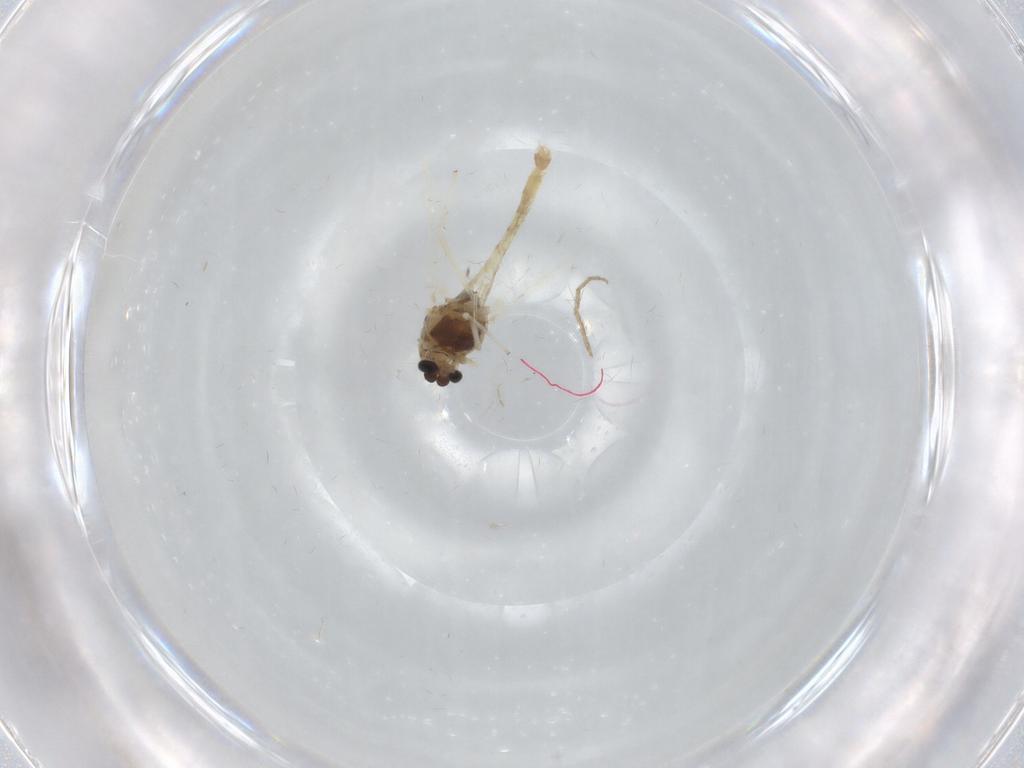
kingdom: Animalia
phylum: Arthropoda
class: Insecta
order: Diptera
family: Chironomidae
